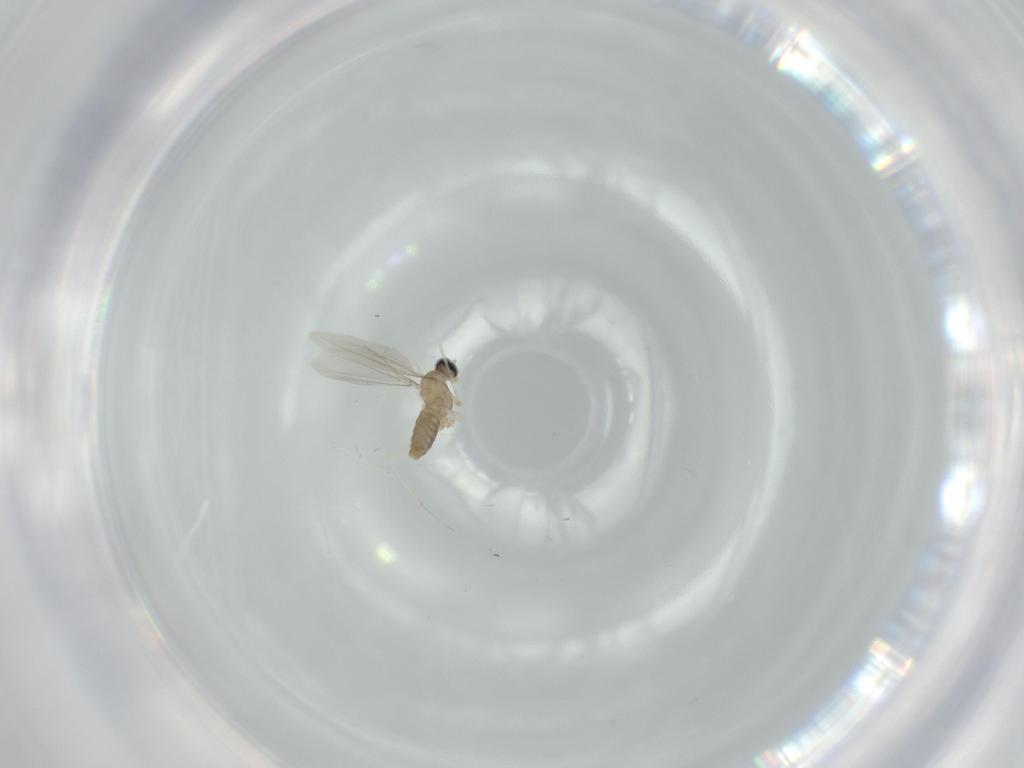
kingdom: Animalia
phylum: Arthropoda
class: Insecta
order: Diptera
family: Cecidomyiidae
